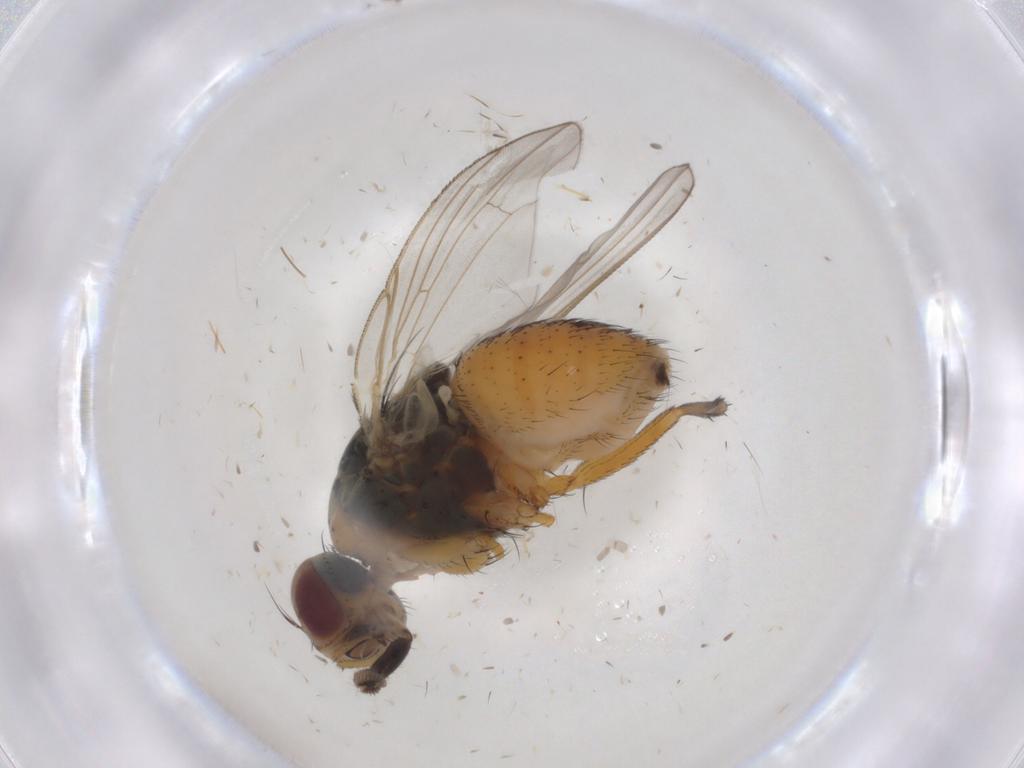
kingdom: Animalia
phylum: Arthropoda
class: Insecta
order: Diptera
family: Muscidae
